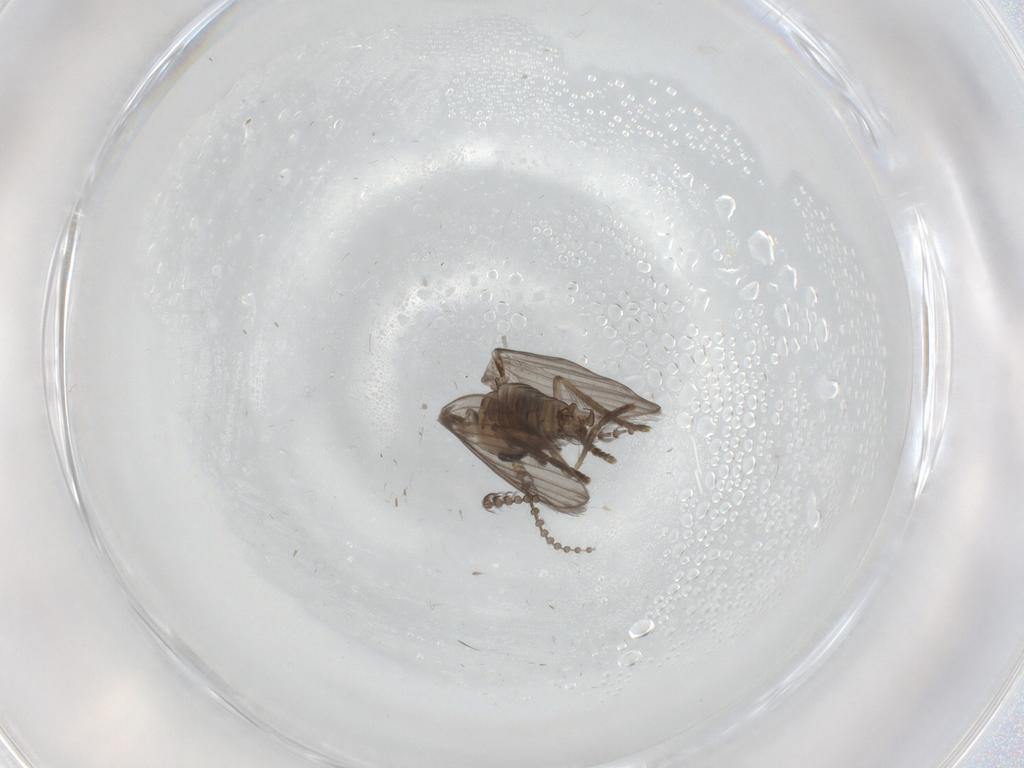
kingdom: Animalia
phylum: Arthropoda
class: Insecta
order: Diptera
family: Psychodidae
